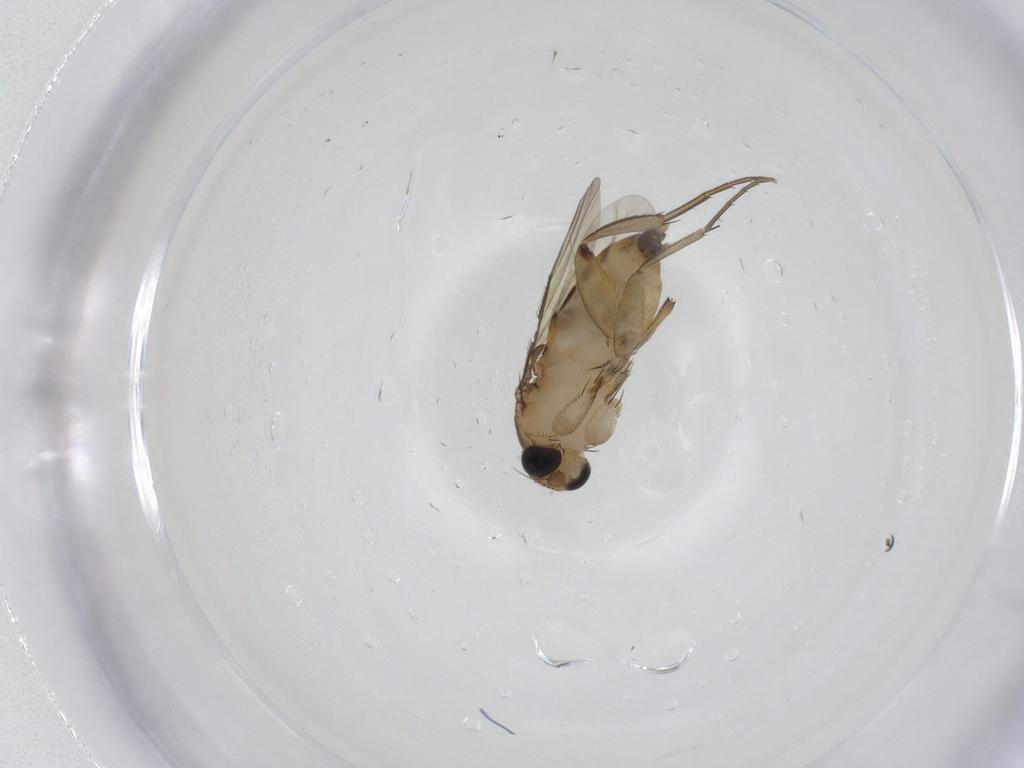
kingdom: Animalia
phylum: Arthropoda
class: Insecta
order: Diptera
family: Phoridae
